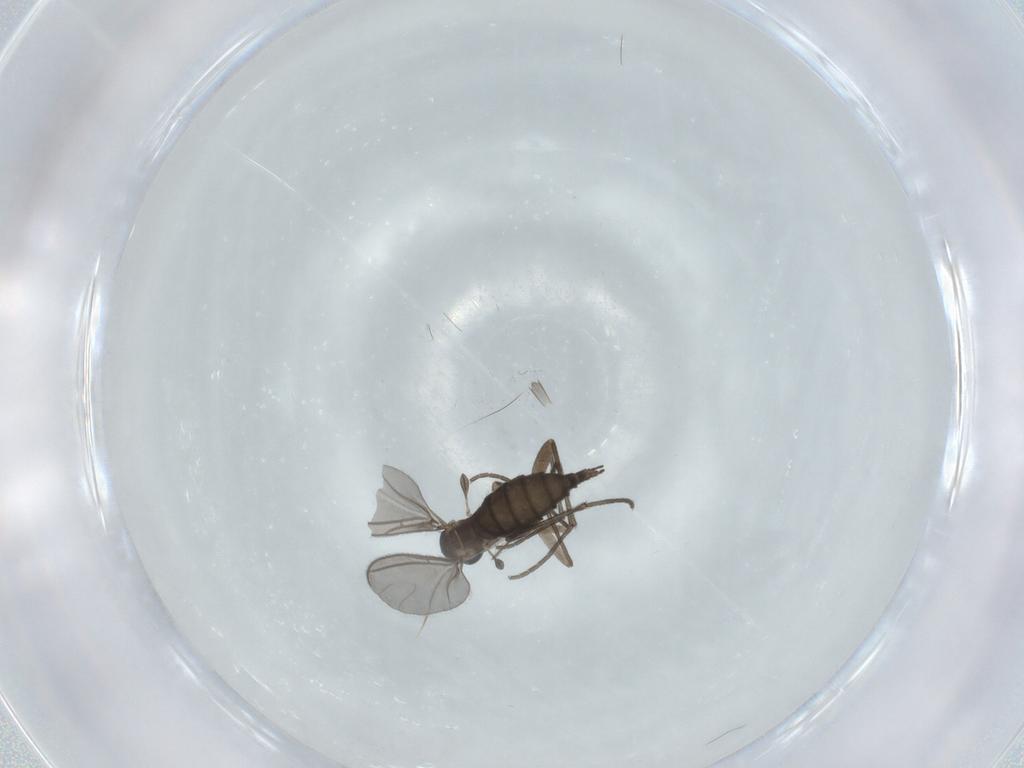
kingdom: Animalia
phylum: Arthropoda
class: Insecta
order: Diptera
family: Sciaridae
